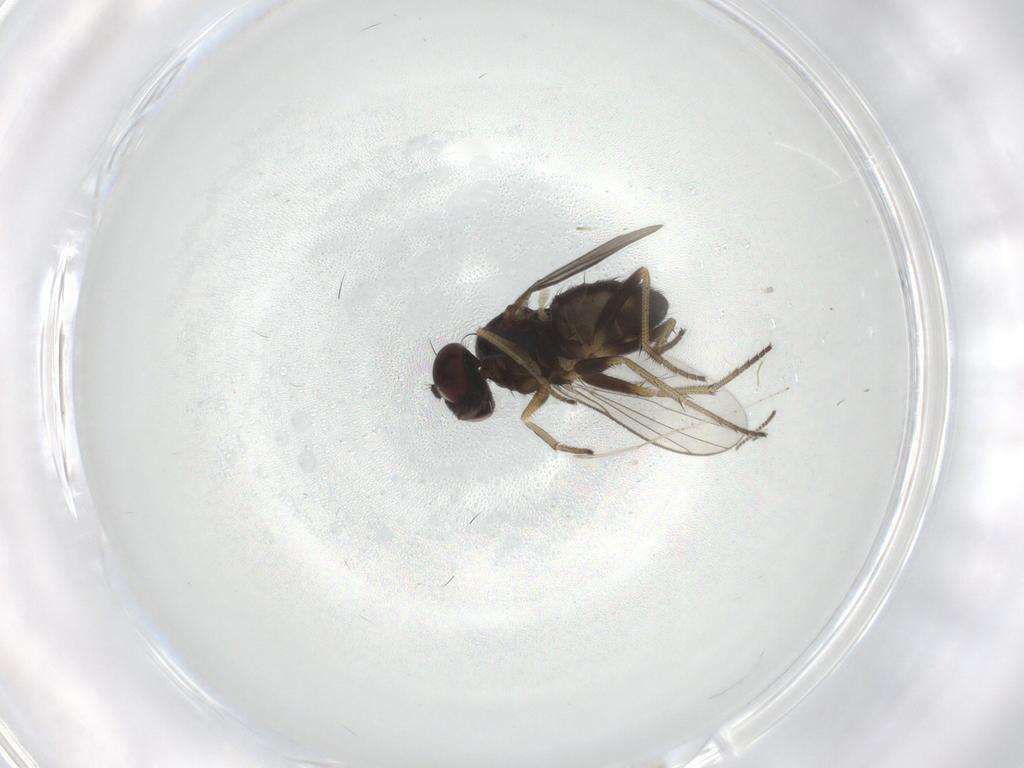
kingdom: Animalia
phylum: Arthropoda
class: Insecta
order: Diptera
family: Sciaridae
